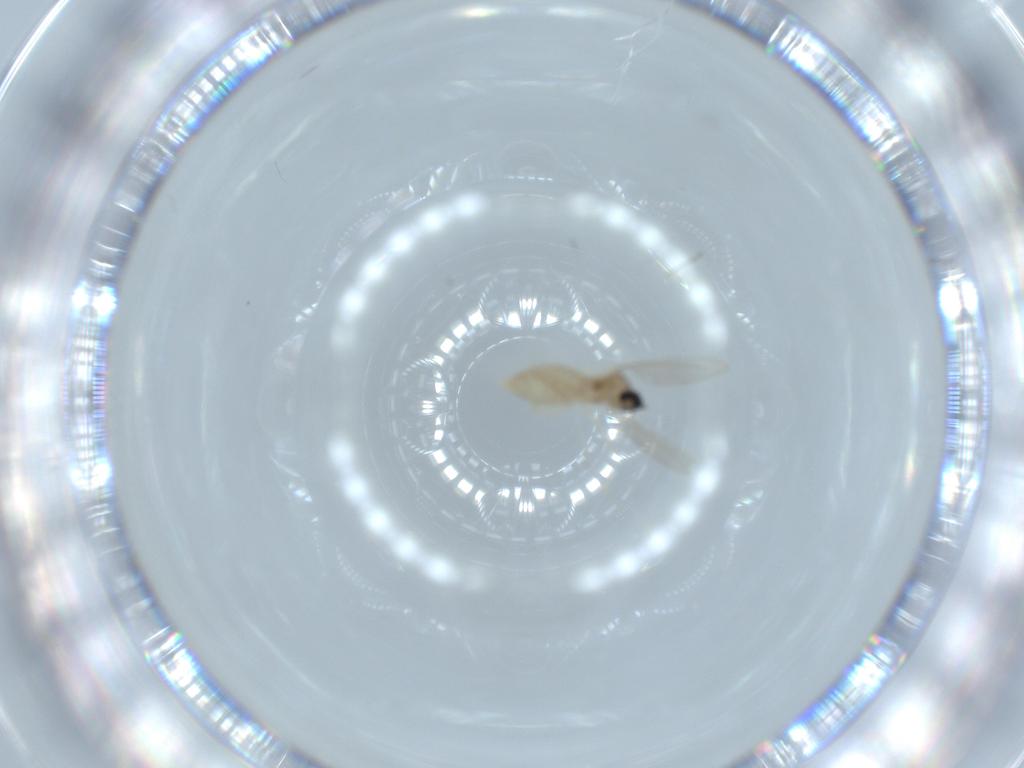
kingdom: Animalia
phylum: Arthropoda
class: Insecta
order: Diptera
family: Cecidomyiidae
